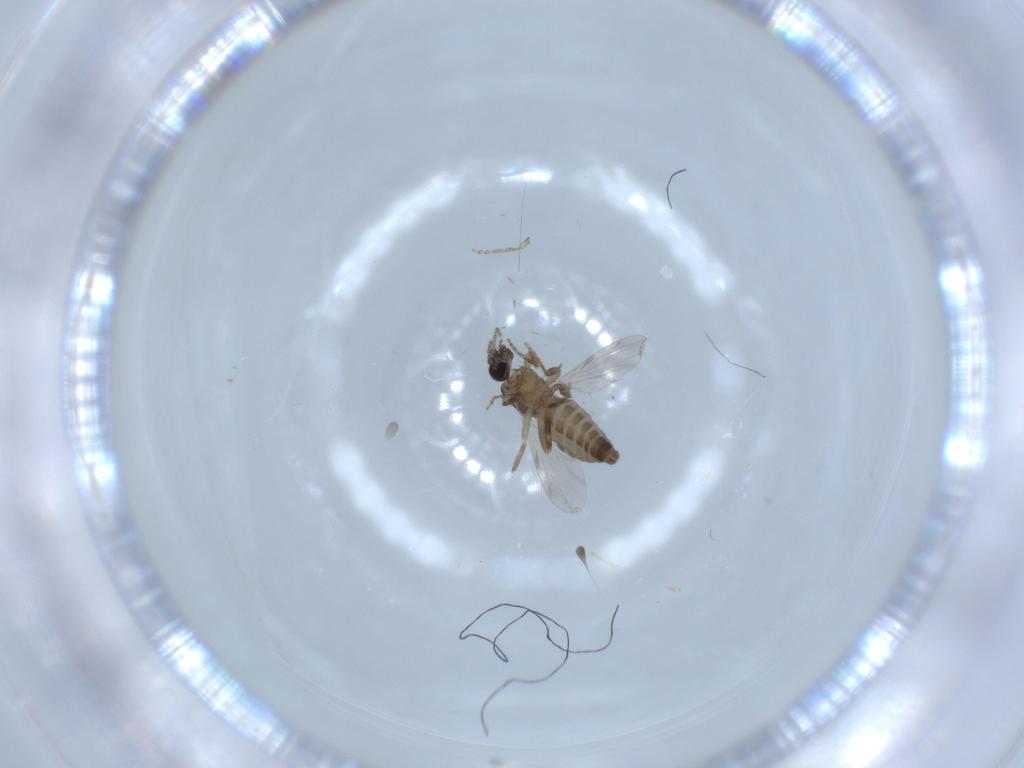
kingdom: Animalia
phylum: Arthropoda
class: Insecta
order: Diptera
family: Ceratopogonidae
